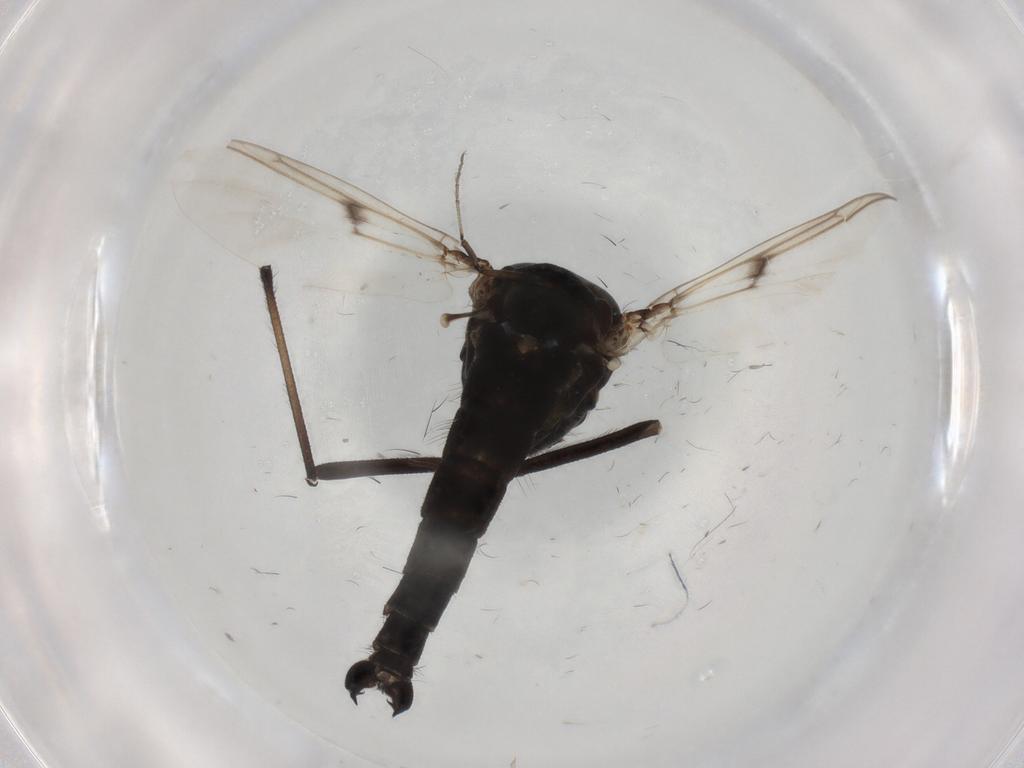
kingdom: Animalia
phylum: Arthropoda
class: Insecta
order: Diptera
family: Chironomidae
